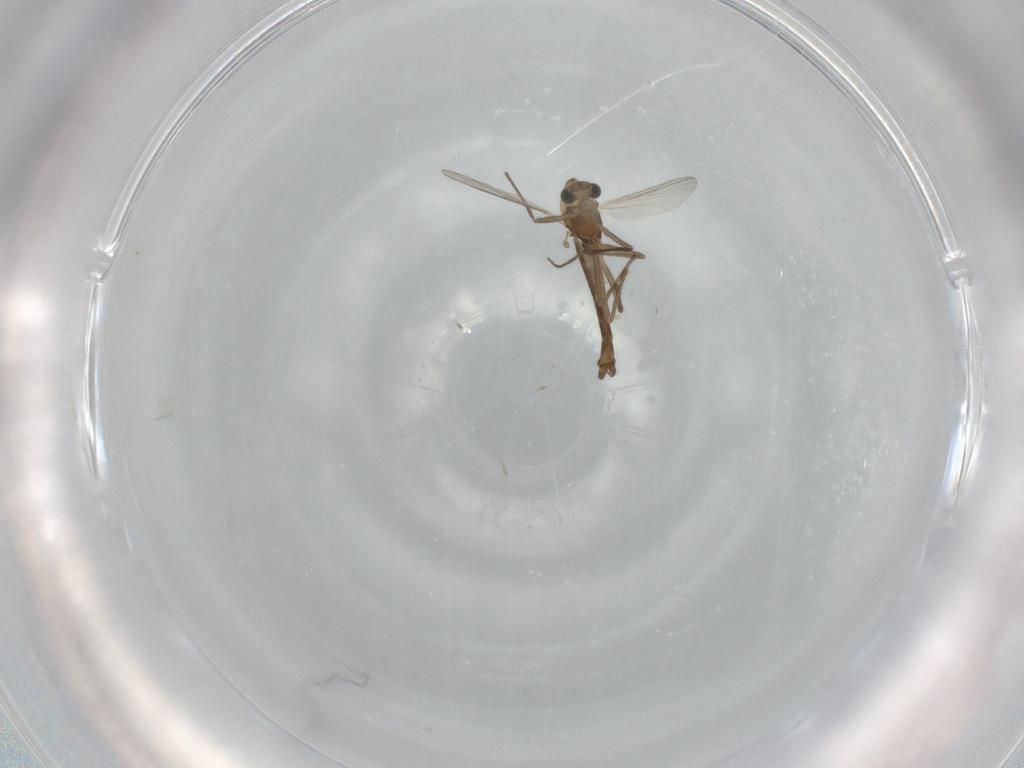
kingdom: Animalia
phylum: Arthropoda
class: Insecta
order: Diptera
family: Chironomidae
